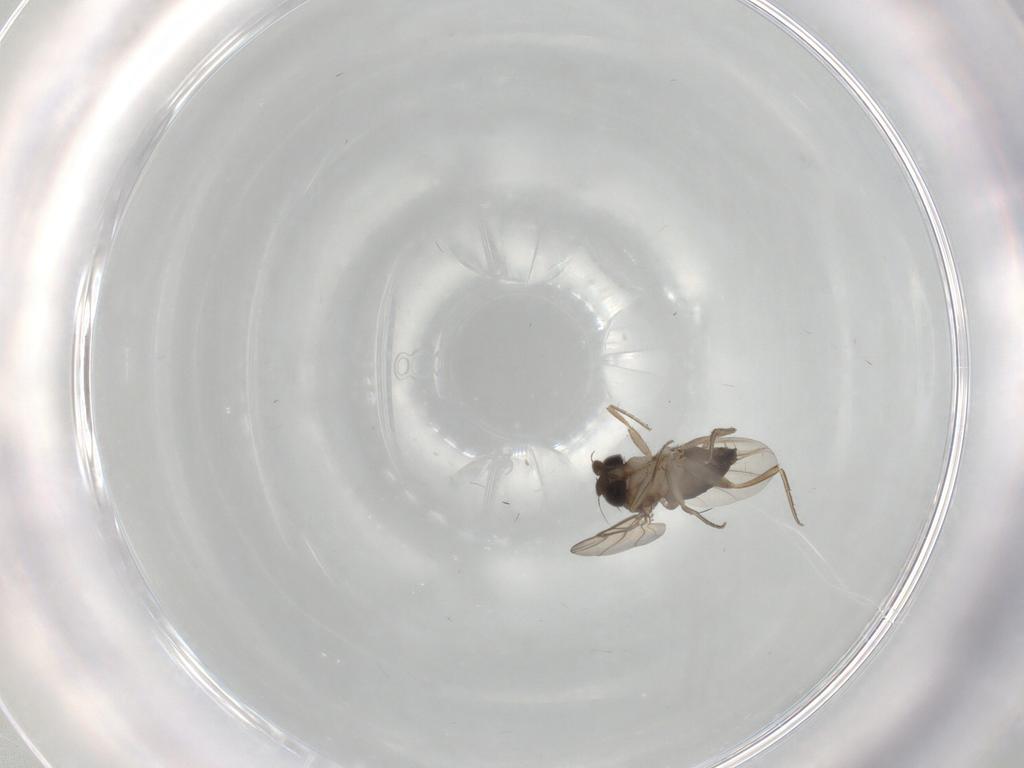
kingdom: Animalia
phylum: Arthropoda
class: Insecta
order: Diptera
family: Phoridae
